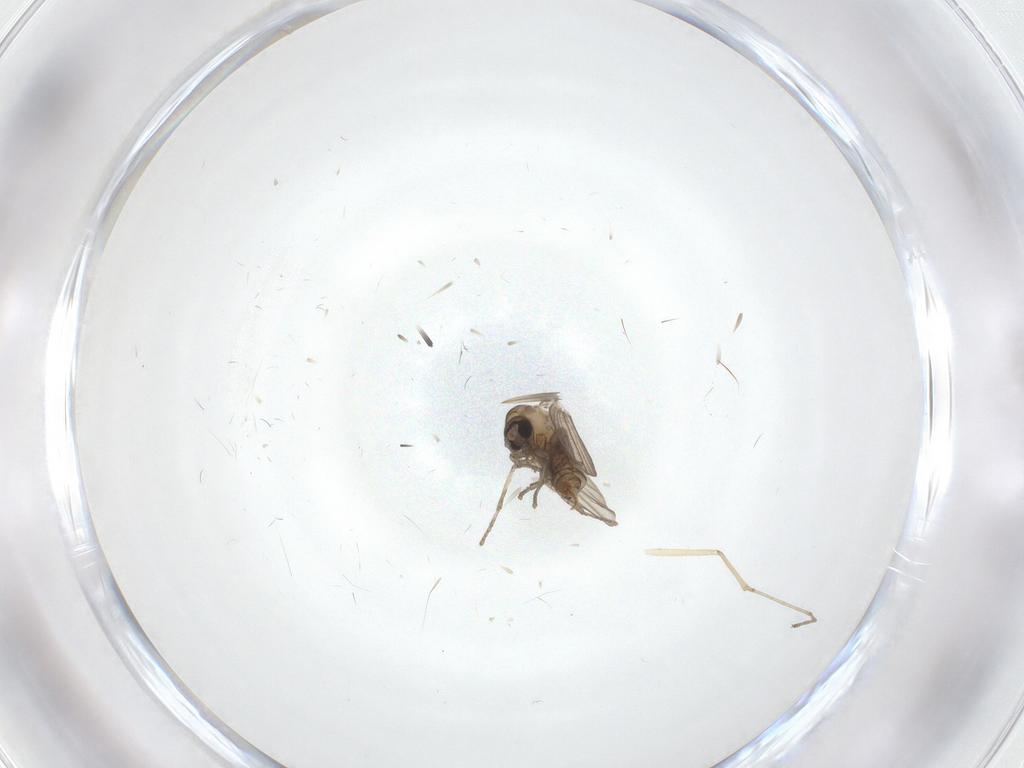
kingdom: Animalia
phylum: Arthropoda
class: Insecta
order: Diptera
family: Psychodidae
